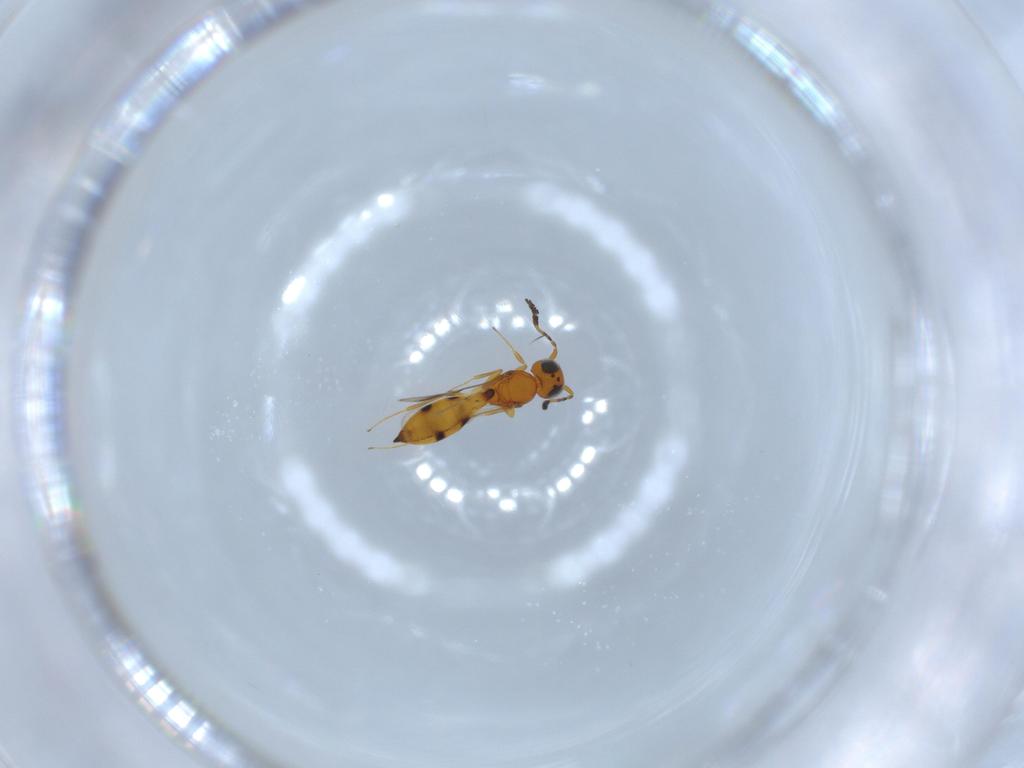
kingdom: Animalia
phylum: Arthropoda
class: Insecta
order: Hymenoptera
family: Scelionidae
